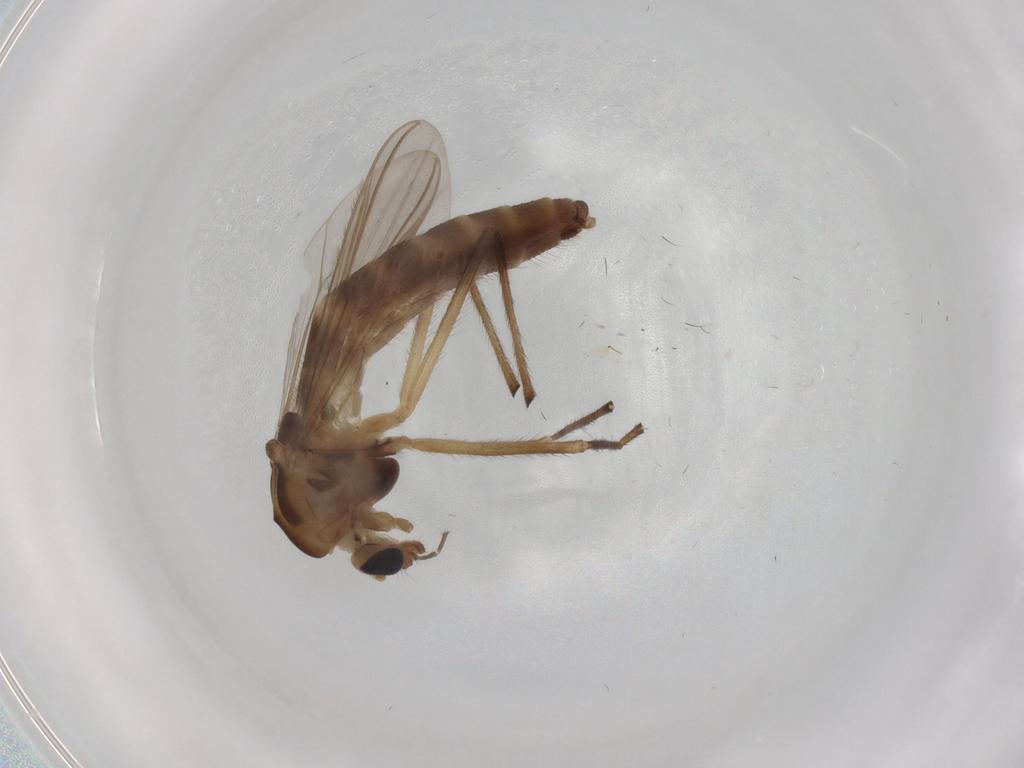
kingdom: Animalia
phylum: Arthropoda
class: Insecta
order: Diptera
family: Chironomidae
